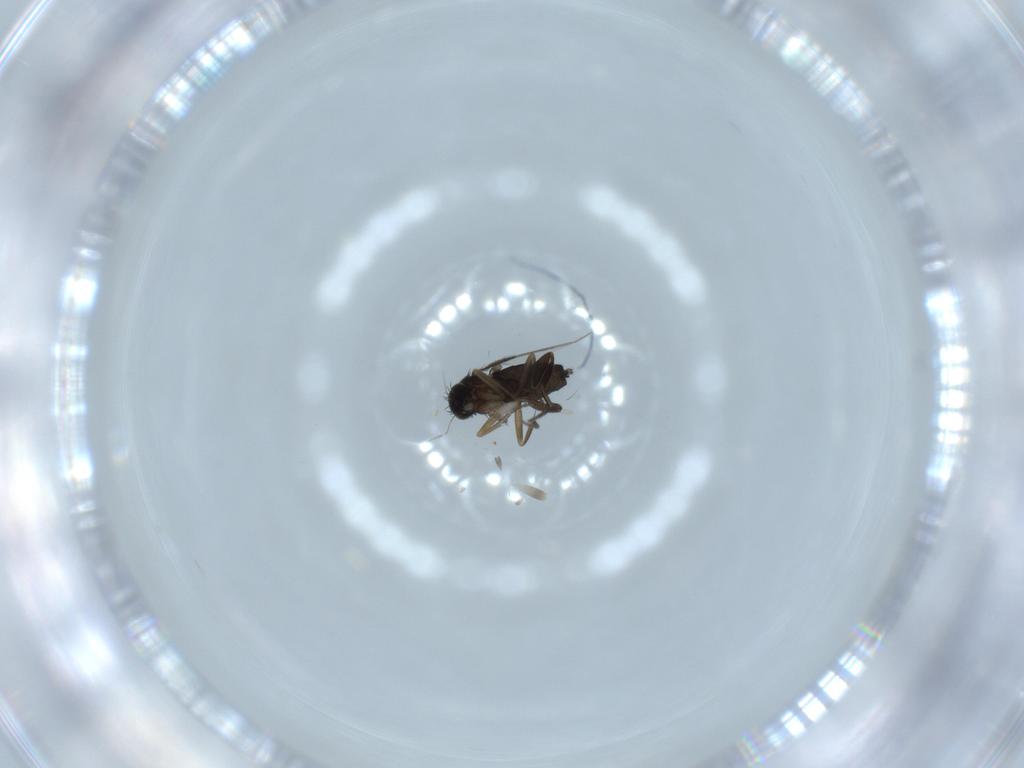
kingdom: Animalia
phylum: Arthropoda
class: Insecta
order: Diptera
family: Phoridae
